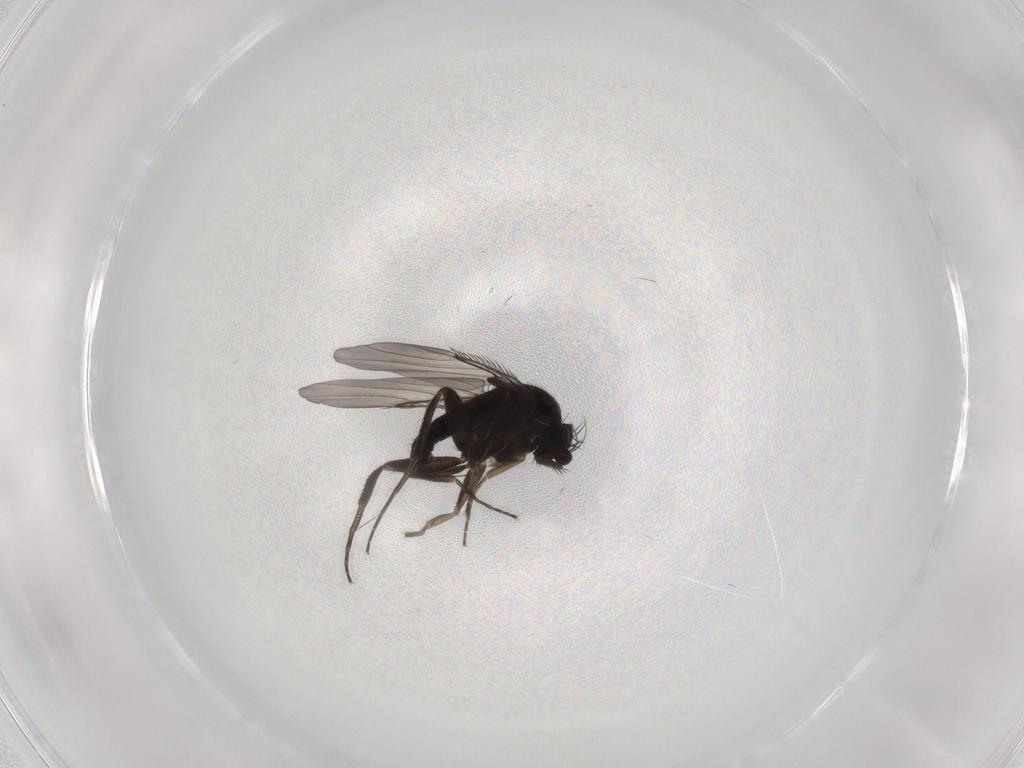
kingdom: Animalia
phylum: Arthropoda
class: Insecta
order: Diptera
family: Phoridae
